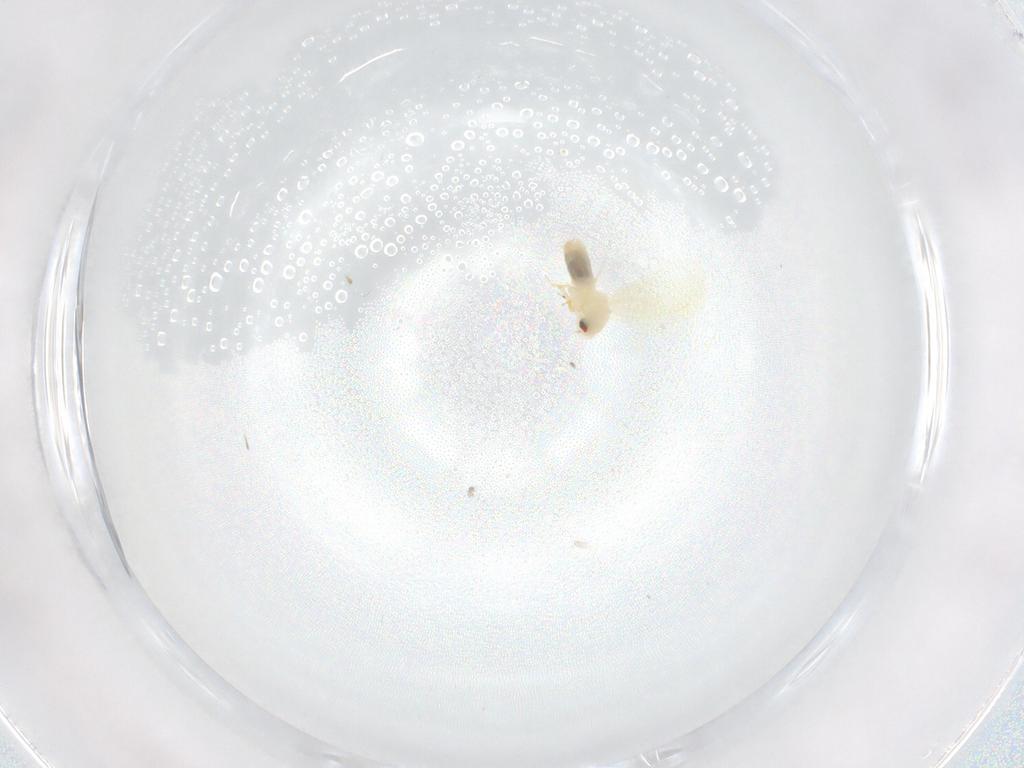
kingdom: Animalia
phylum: Arthropoda
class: Insecta
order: Hemiptera
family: Aleyrodidae
